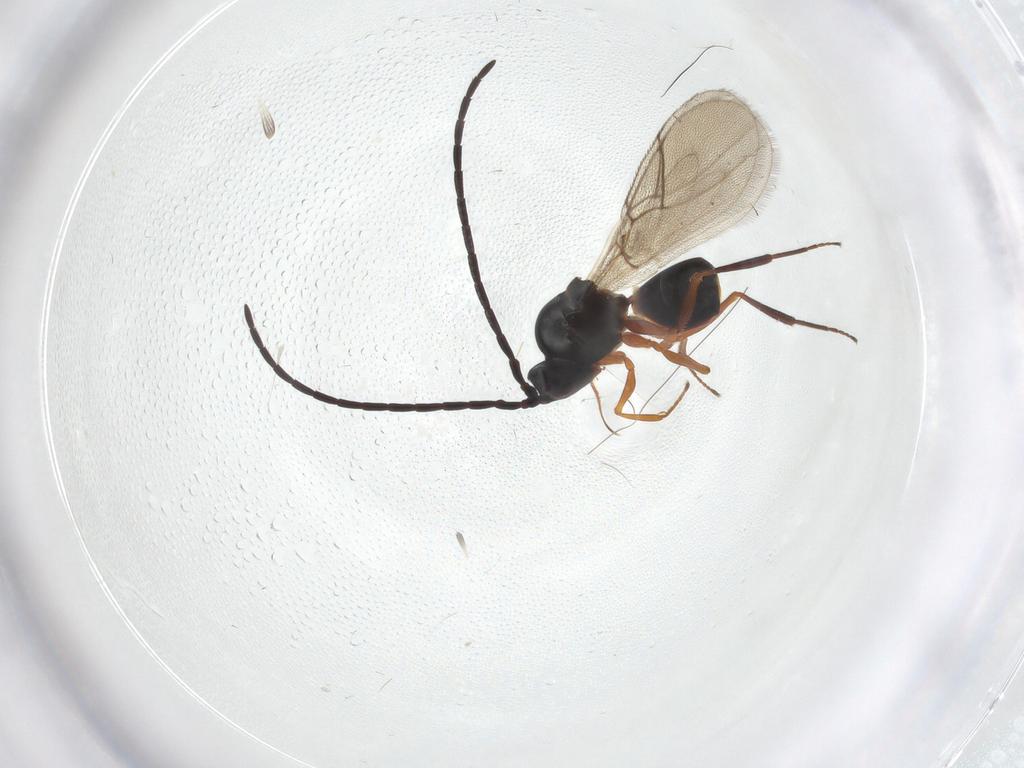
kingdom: Animalia
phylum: Arthropoda
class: Insecta
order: Hymenoptera
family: Figitidae
